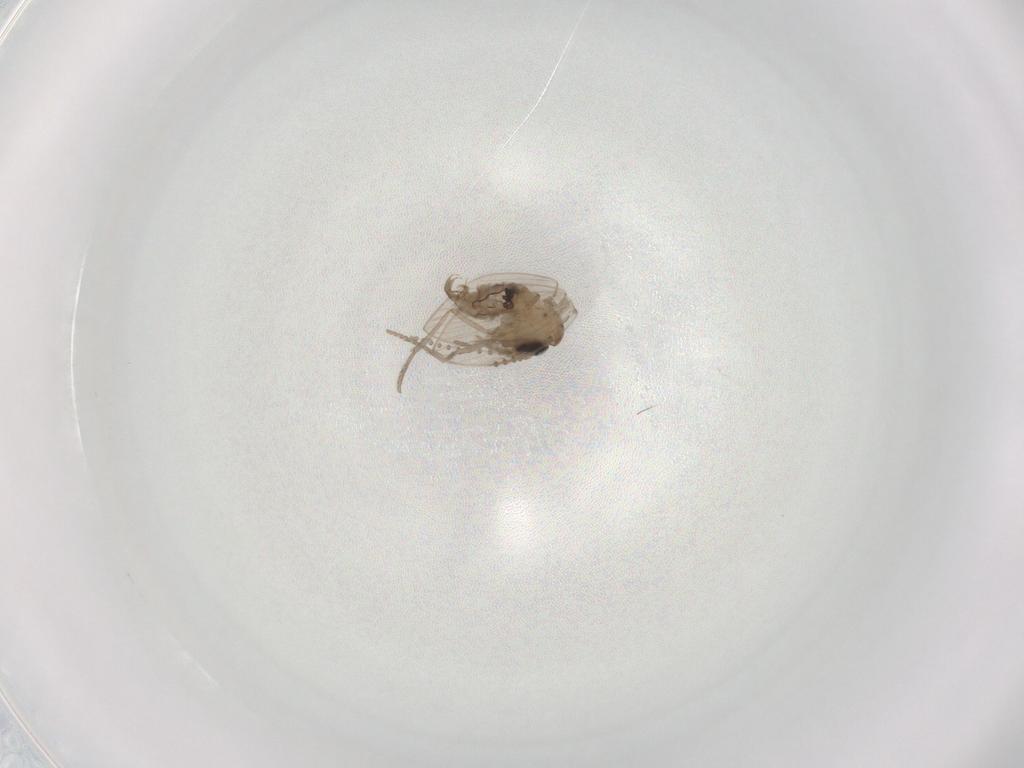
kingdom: Animalia
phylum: Arthropoda
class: Insecta
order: Diptera
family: Psychodidae
